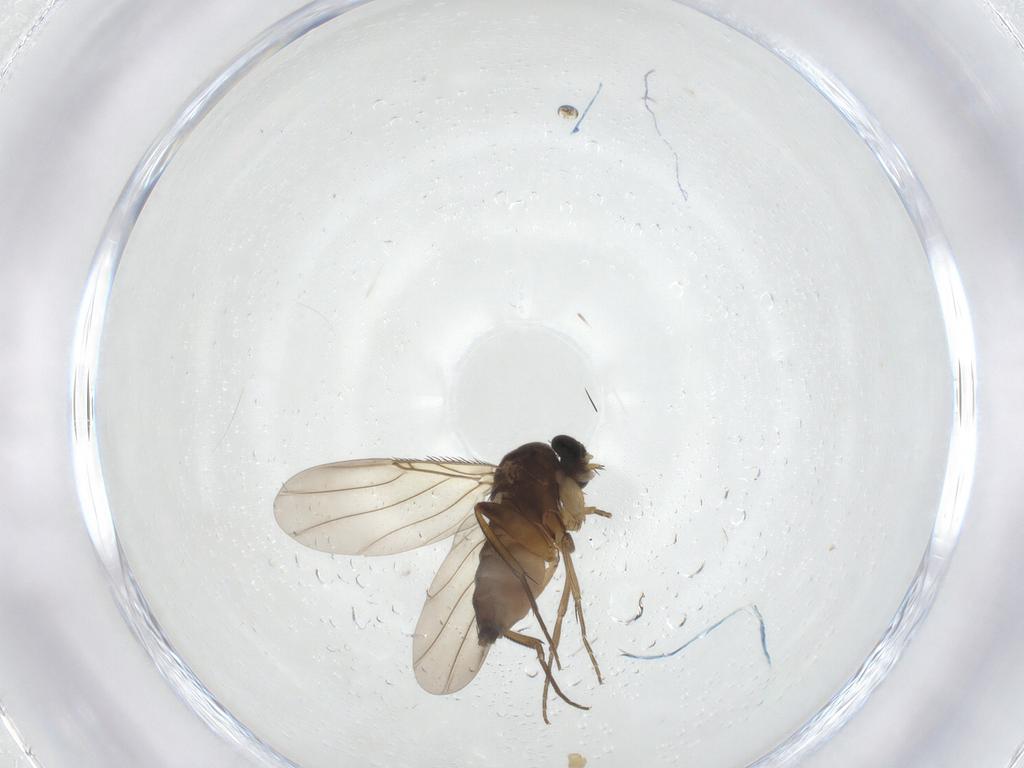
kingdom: Animalia
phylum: Arthropoda
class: Insecta
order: Diptera
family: Phoridae
